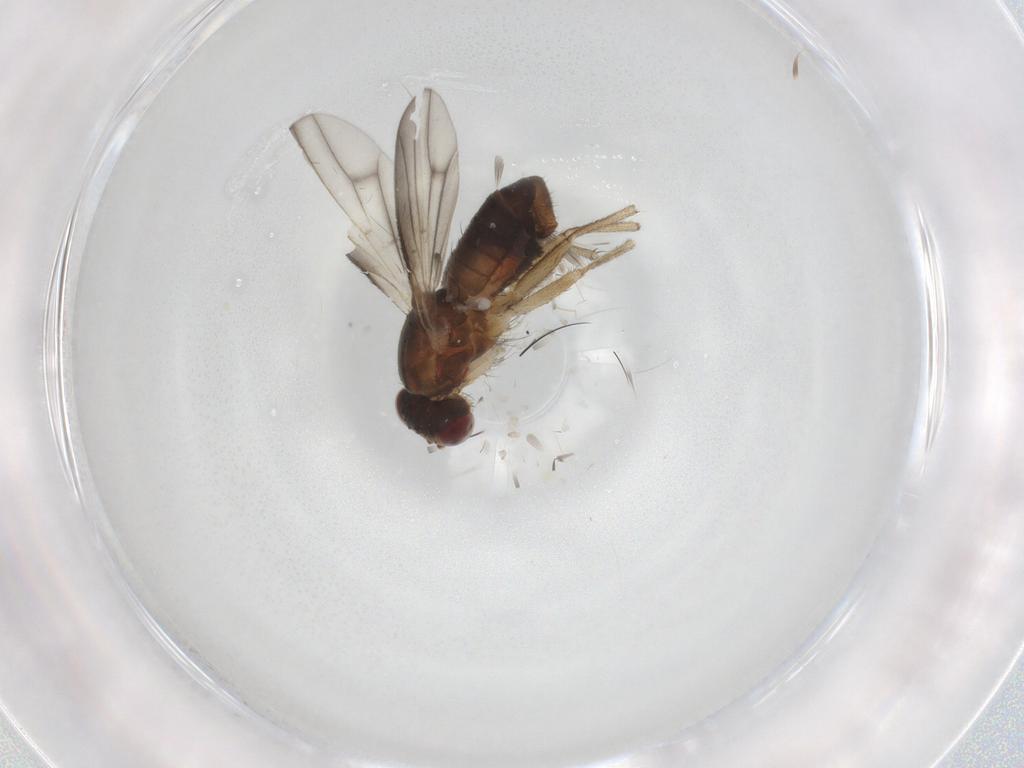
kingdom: Animalia
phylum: Arthropoda
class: Insecta
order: Diptera
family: Heleomyzidae
